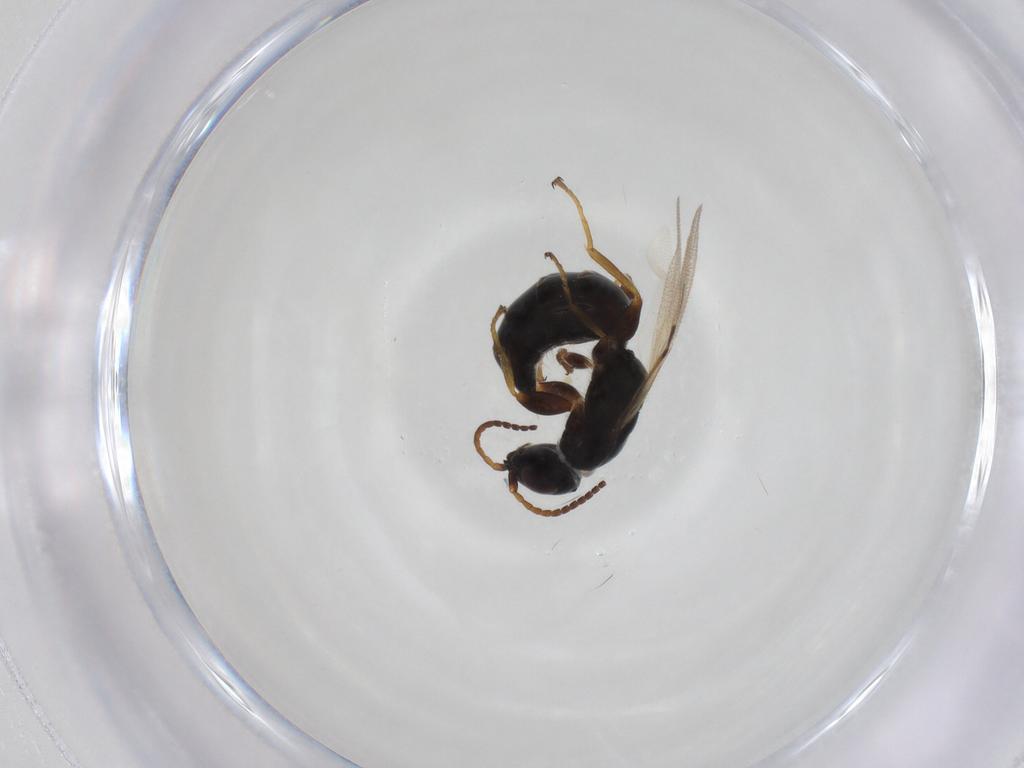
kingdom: Animalia
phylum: Arthropoda
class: Insecta
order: Hymenoptera
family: Bethylidae
